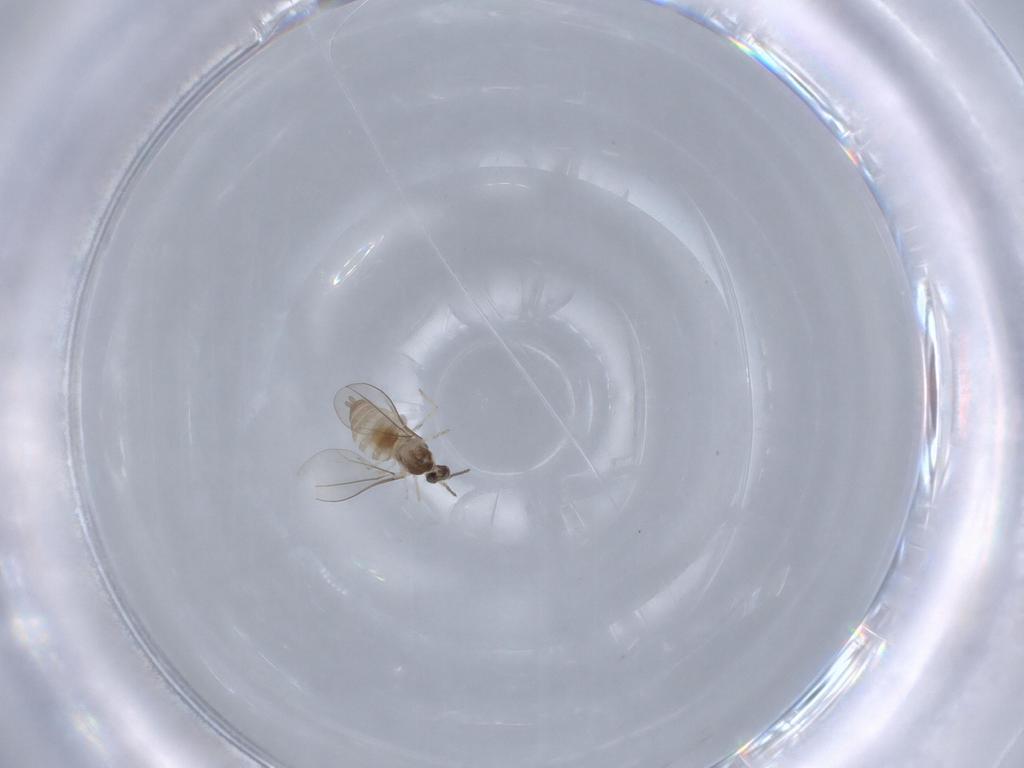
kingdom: Animalia
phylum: Arthropoda
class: Insecta
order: Diptera
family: Cecidomyiidae
